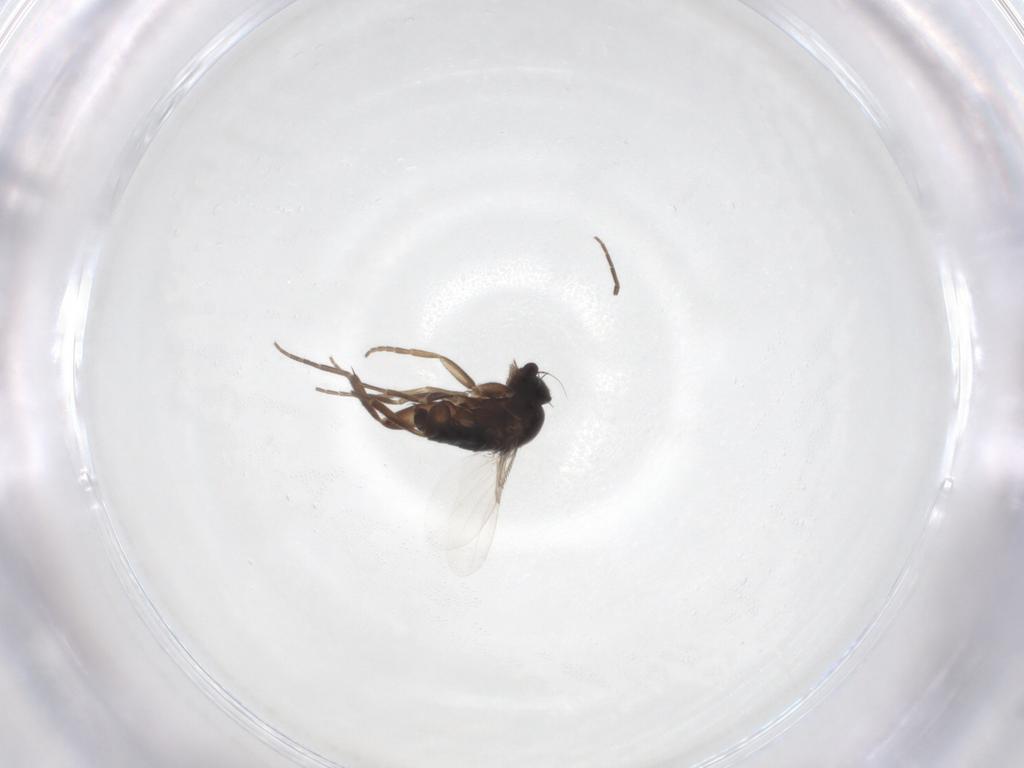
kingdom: Animalia
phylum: Arthropoda
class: Insecta
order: Diptera
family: Phoridae
